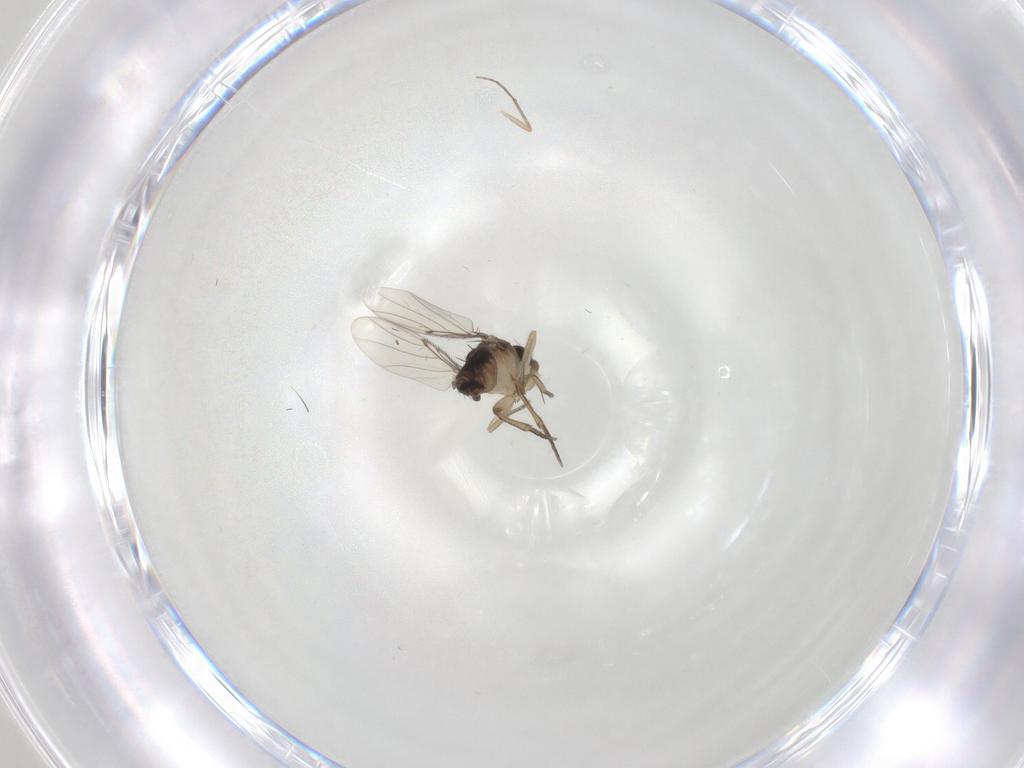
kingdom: Animalia
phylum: Arthropoda
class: Insecta
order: Diptera
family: Chironomidae
